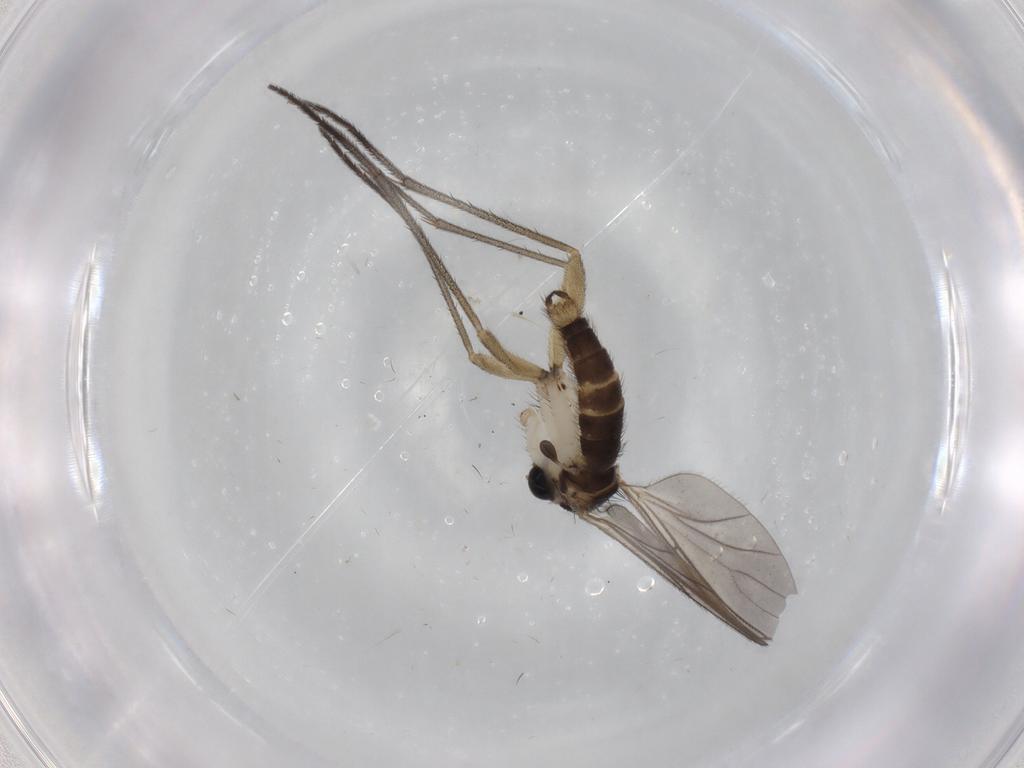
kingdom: Animalia
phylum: Arthropoda
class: Insecta
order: Diptera
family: Sciaridae
